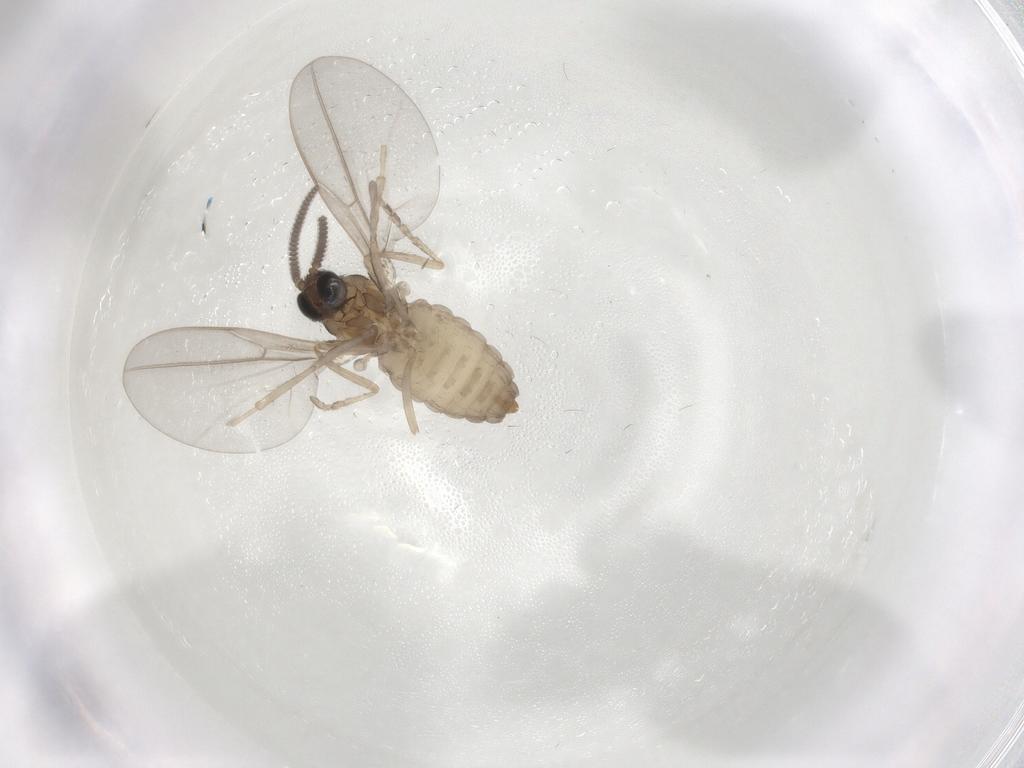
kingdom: Animalia
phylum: Arthropoda
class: Insecta
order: Diptera
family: Cecidomyiidae
